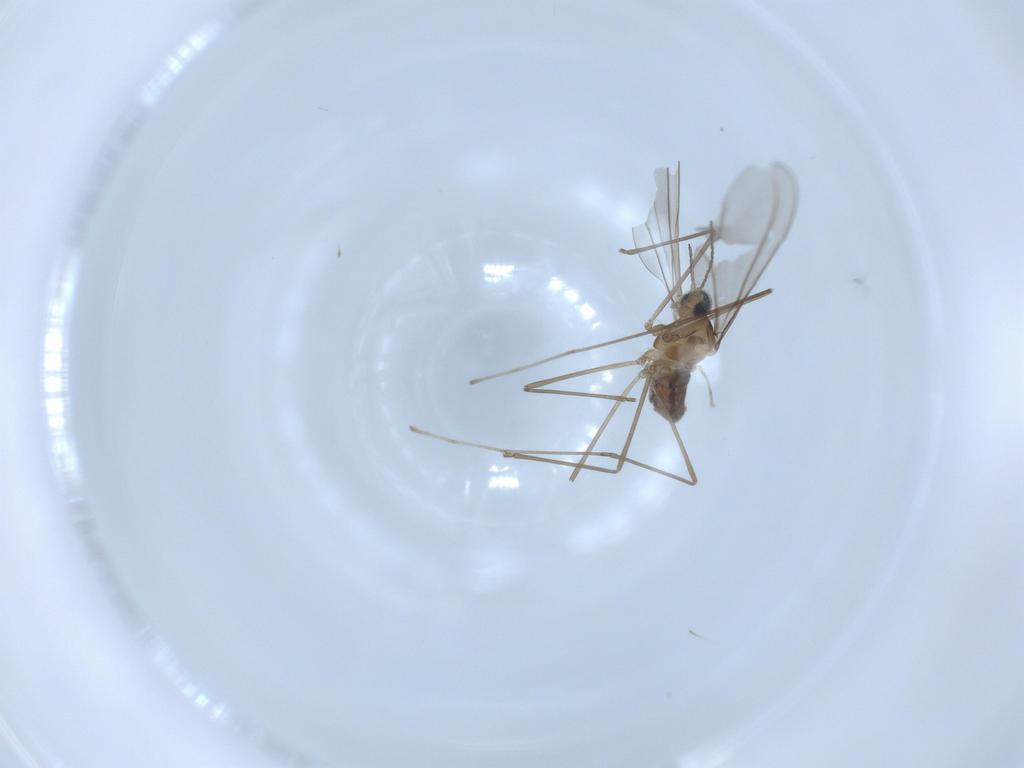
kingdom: Animalia
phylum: Arthropoda
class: Insecta
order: Diptera
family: Cecidomyiidae
